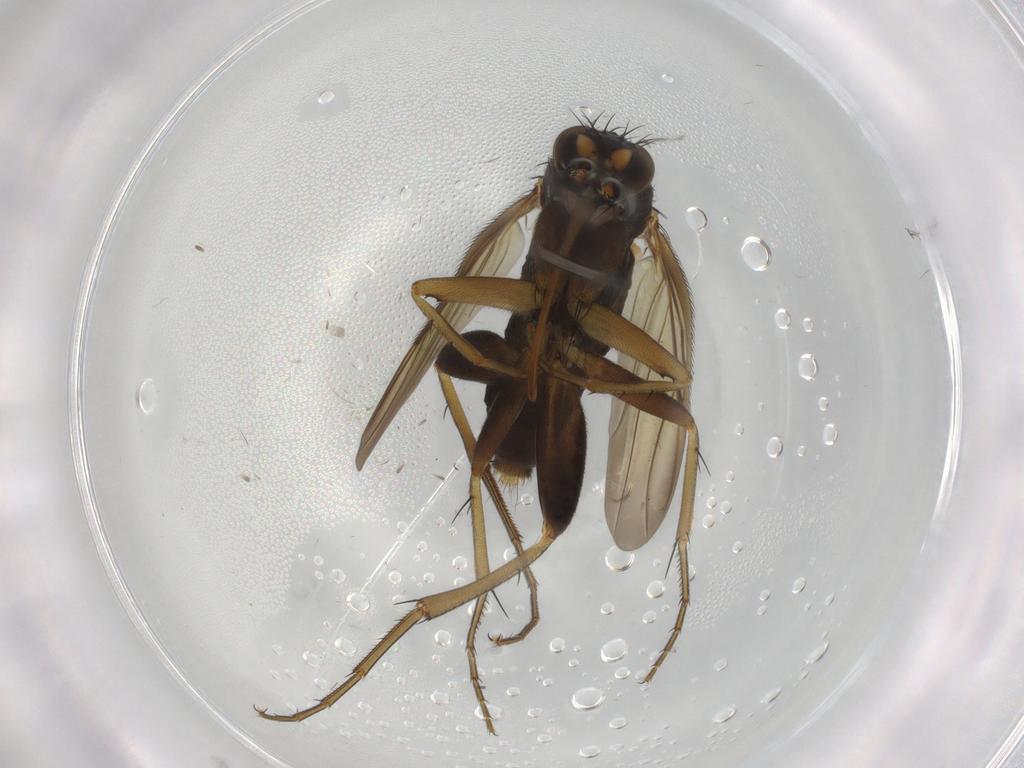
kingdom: Animalia
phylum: Arthropoda
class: Insecta
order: Diptera
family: Phoridae
